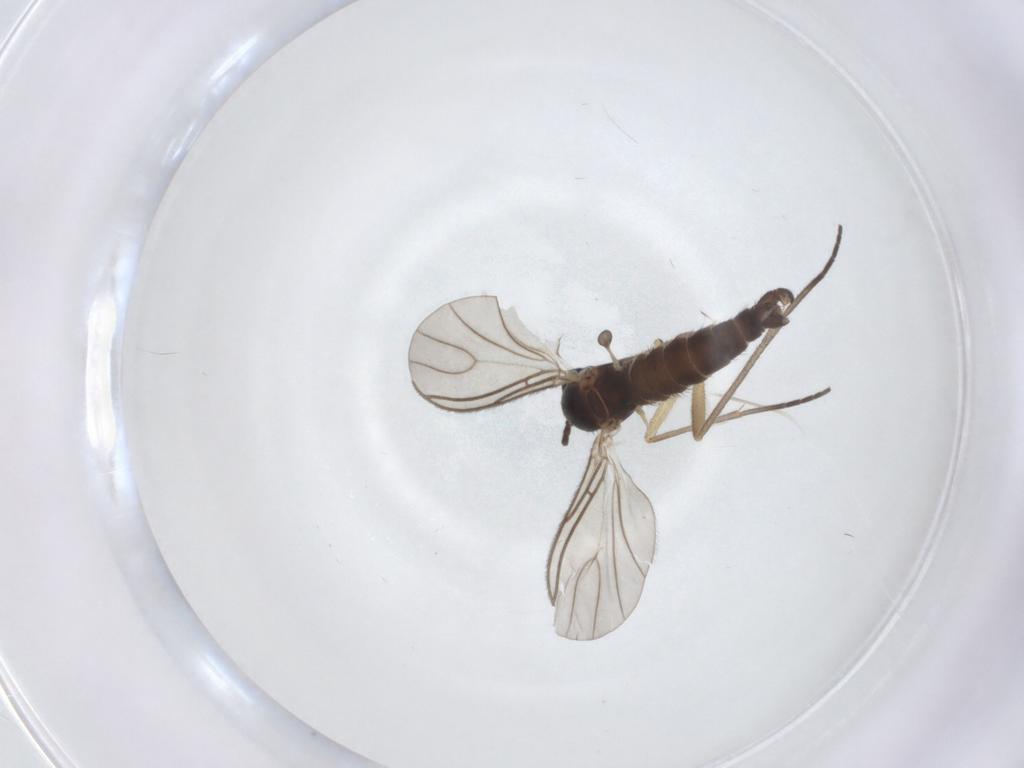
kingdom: Animalia
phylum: Arthropoda
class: Insecta
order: Diptera
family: Sciaridae
